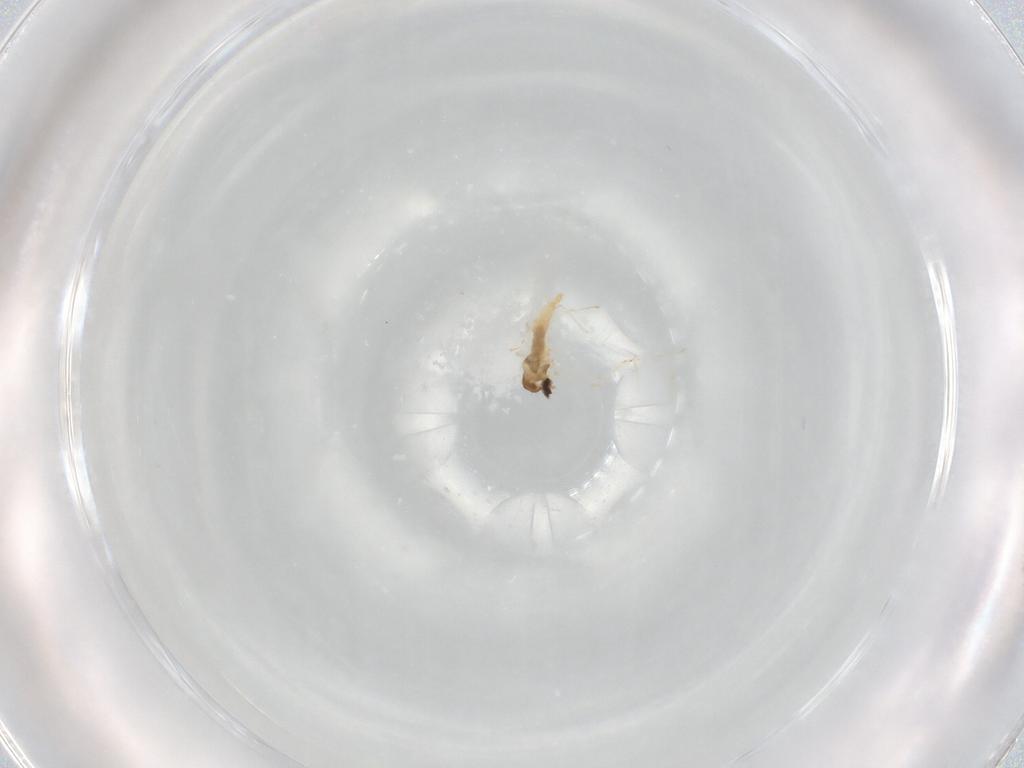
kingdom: Animalia
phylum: Arthropoda
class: Insecta
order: Diptera
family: Cecidomyiidae
